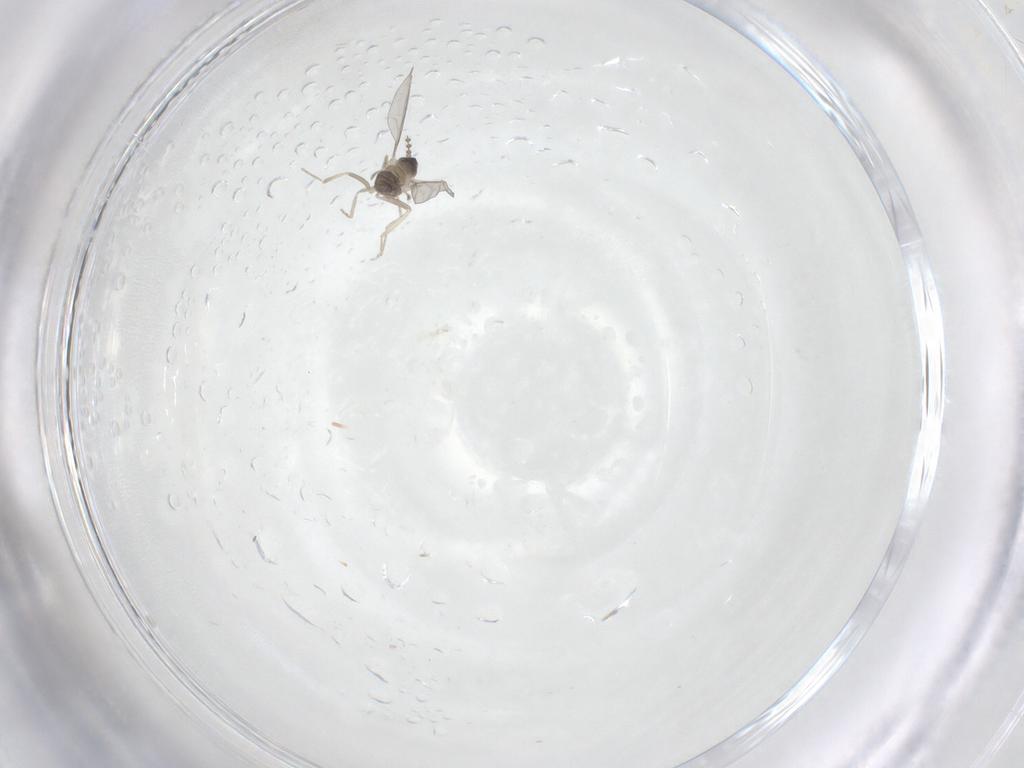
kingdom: Animalia
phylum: Arthropoda
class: Insecta
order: Diptera
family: Ceratopogonidae
